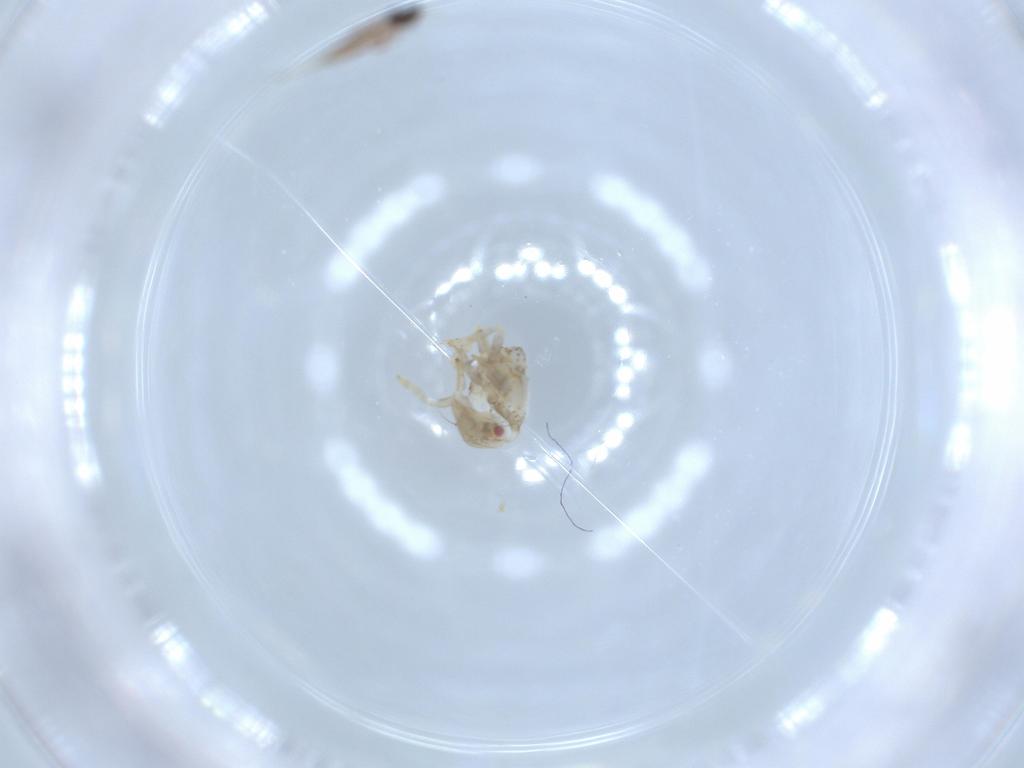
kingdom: Animalia
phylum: Arthropoda
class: Insecta
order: Hemiptera
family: Acanaloniidae
